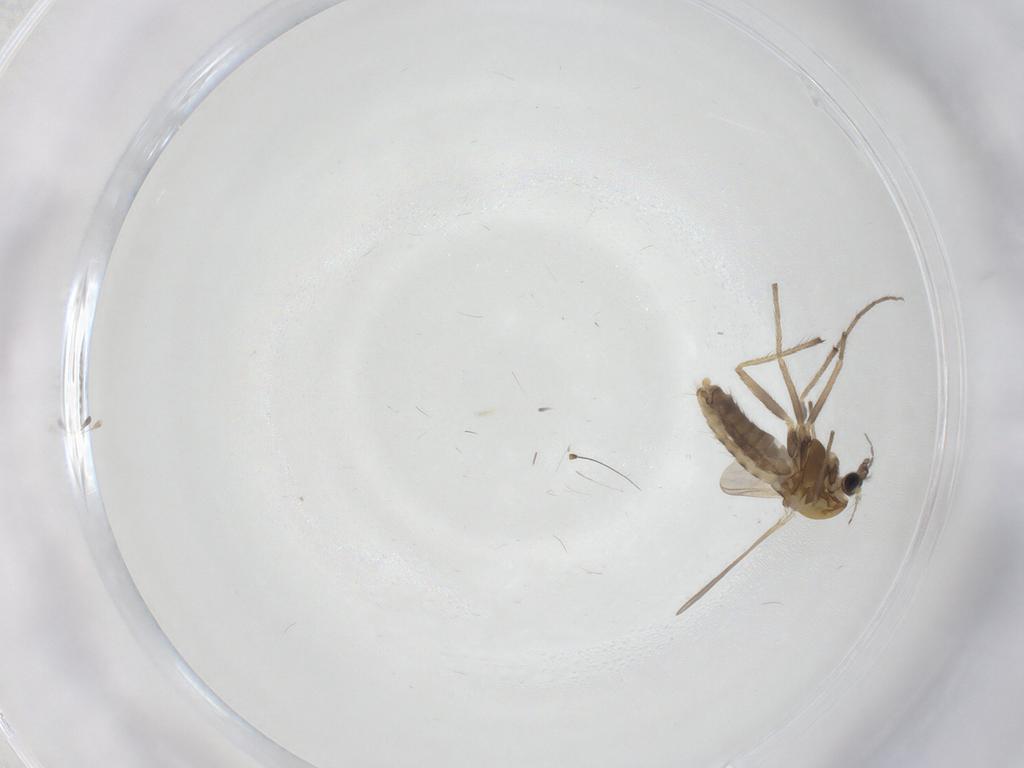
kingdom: Animalia
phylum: Arthropoda
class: Insecta
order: Diptera
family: Chironomidae
